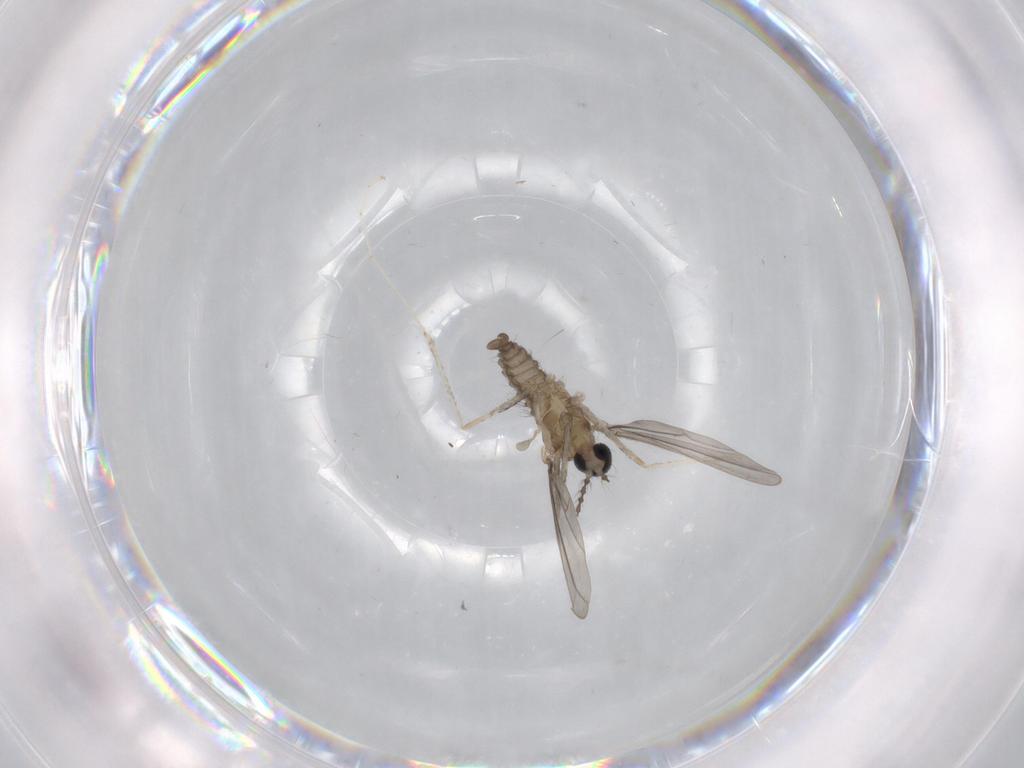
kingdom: Animalia
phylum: Arthropoda
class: Insecta
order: Diptera
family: Cecidomyiidae
